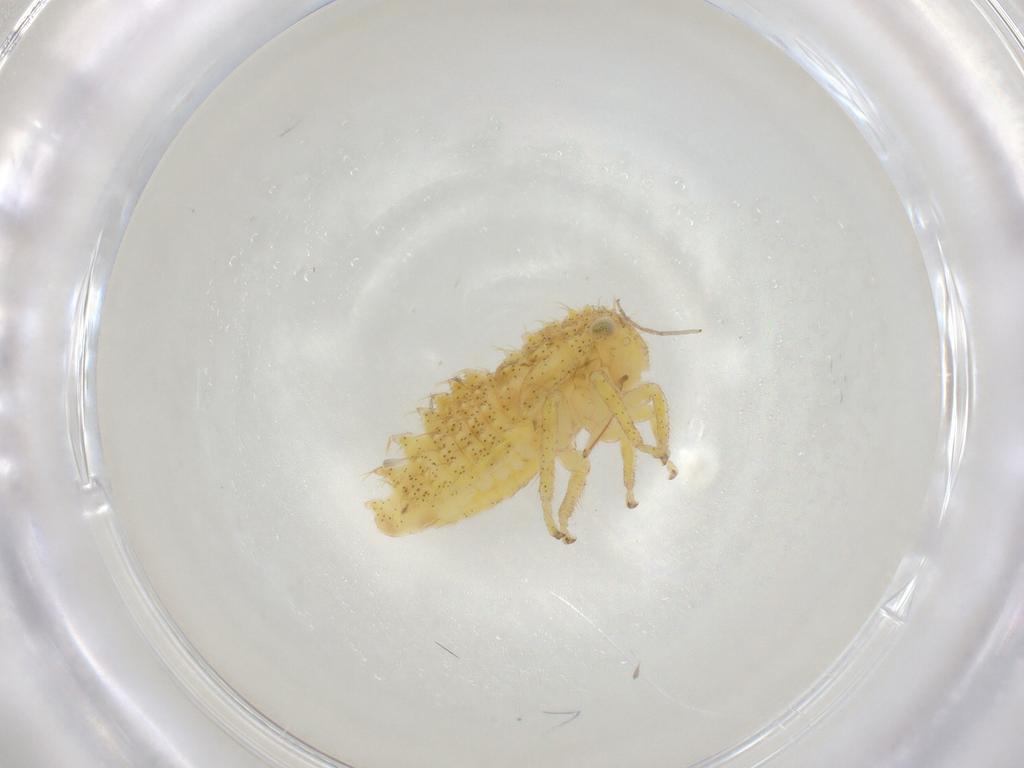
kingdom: Animalia
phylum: Arthropoda
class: Insecta
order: Hemiptera
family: Cicadellidae
